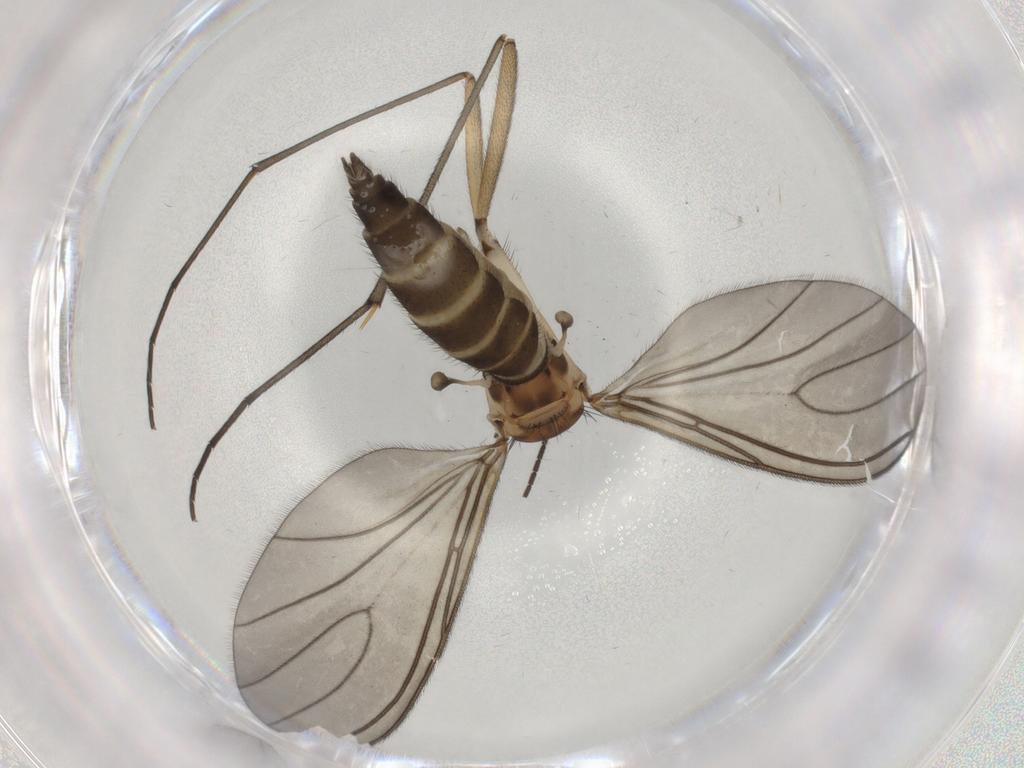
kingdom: Animalia
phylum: Arthropoda
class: Insecta
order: Diptera
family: Sciaridae
